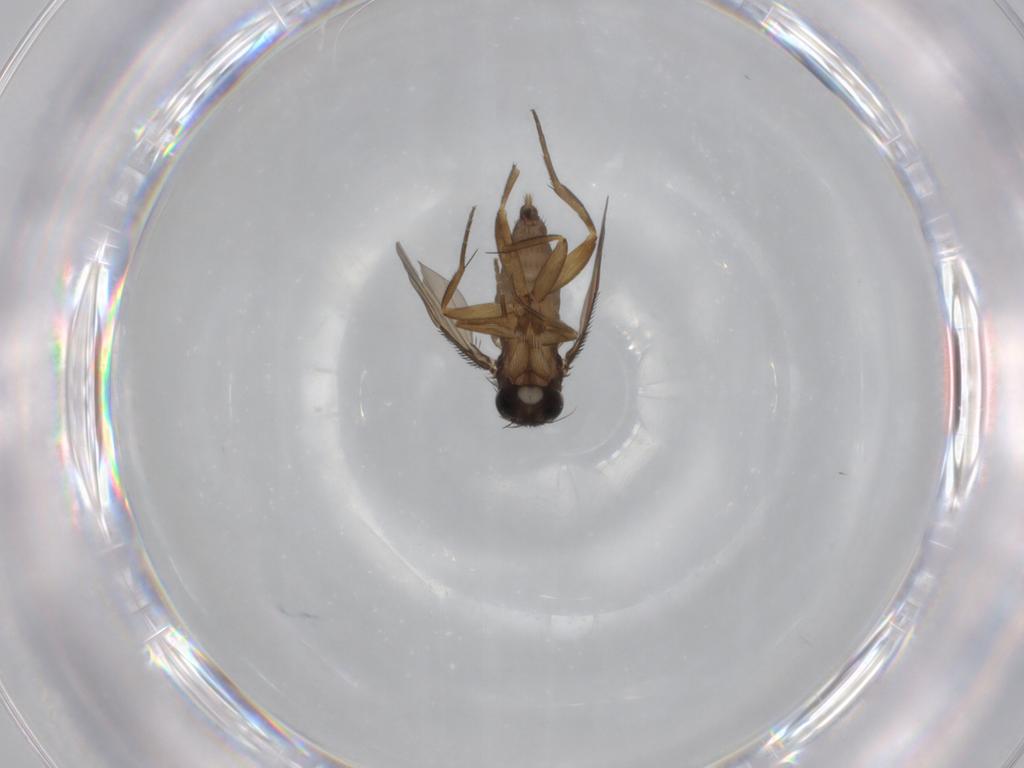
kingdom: Animalia
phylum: Arthropoda
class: Insecta
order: Diptera
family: Phoridae
